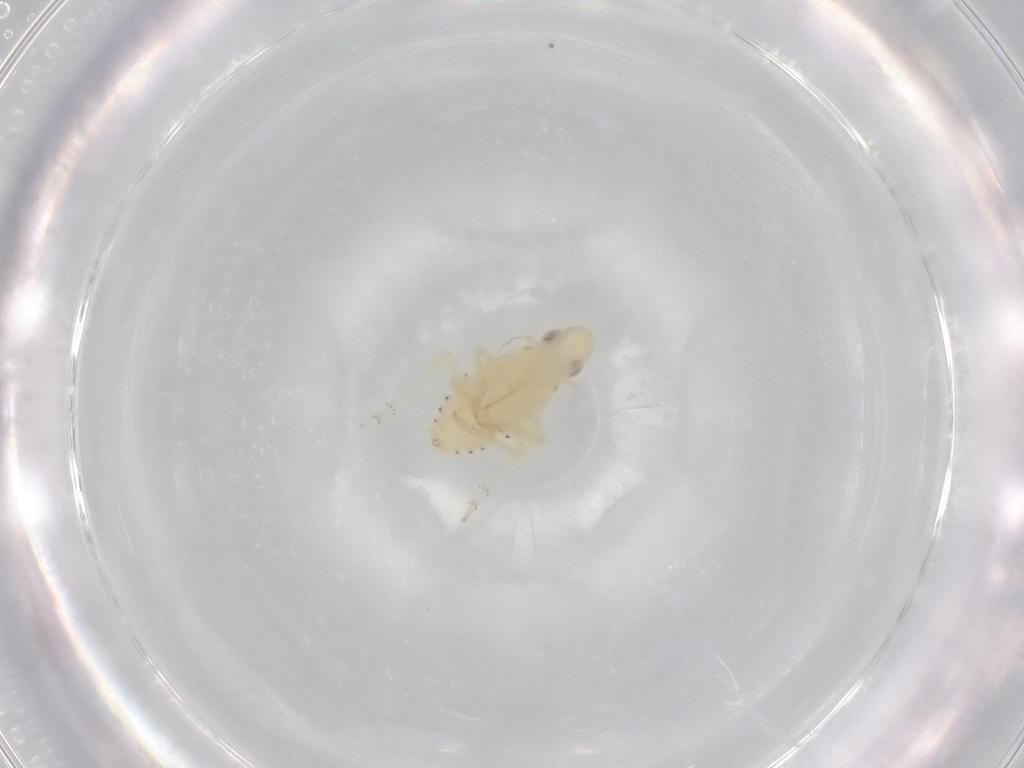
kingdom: Animalia
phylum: Arthropoda
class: Insecta
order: Hemiptera
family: Tropiduchidae
